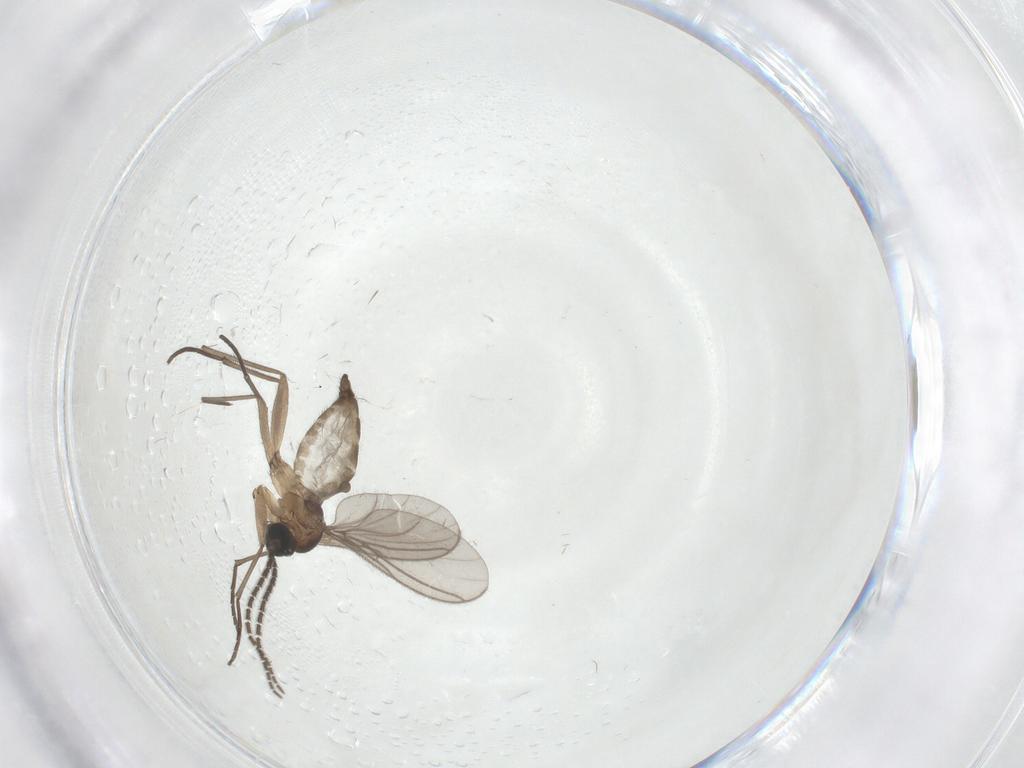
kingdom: Animalia
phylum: Arthropoda
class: Insecta
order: Diptera
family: Sciaridae
